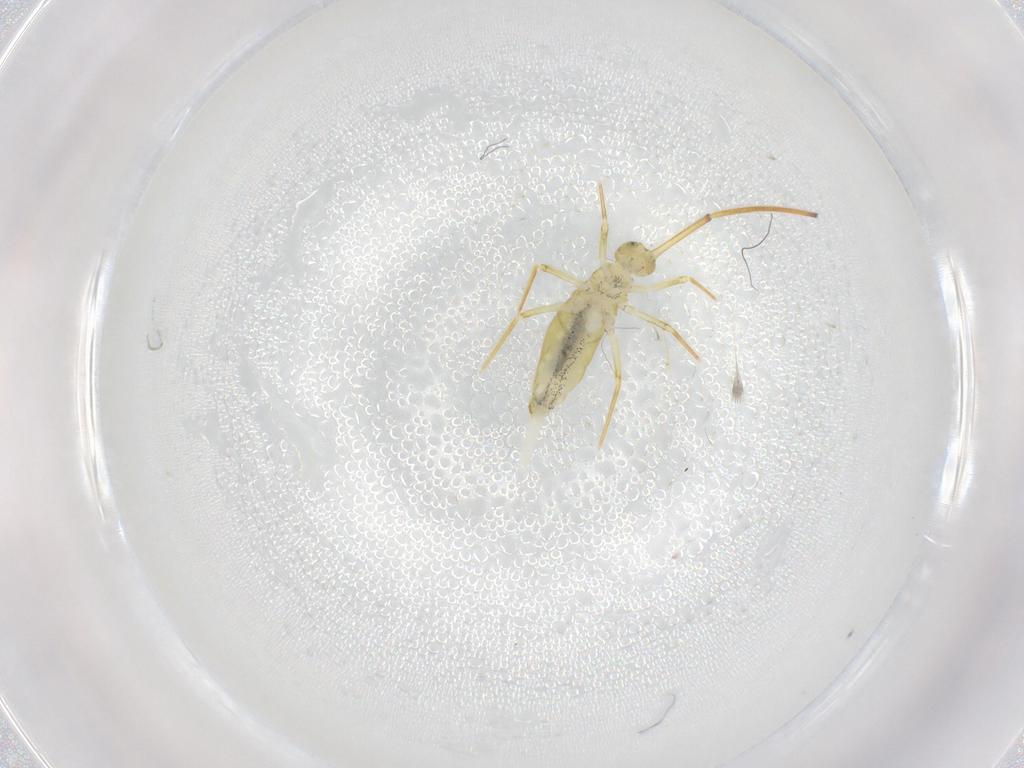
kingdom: Animalia
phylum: Arthropoda
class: Collembola
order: Entomobryomorpha
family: Entomobryidae
